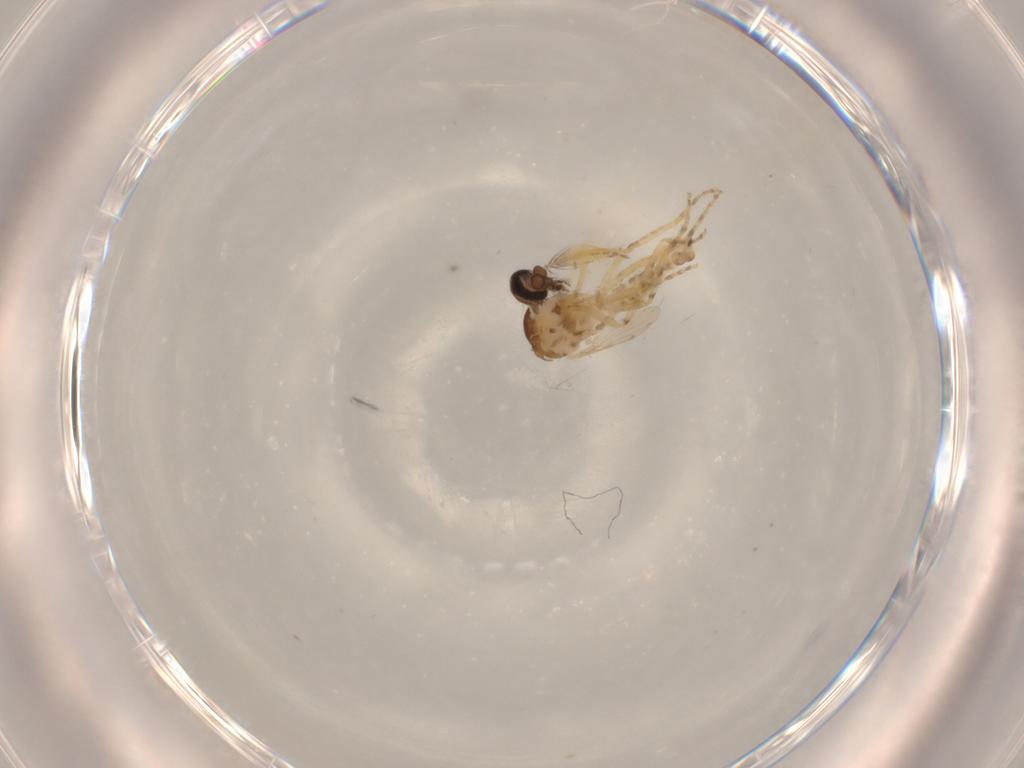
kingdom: Animalia
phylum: Arthropoda
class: Insecta
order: Diptera
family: Ceratopogonidae
